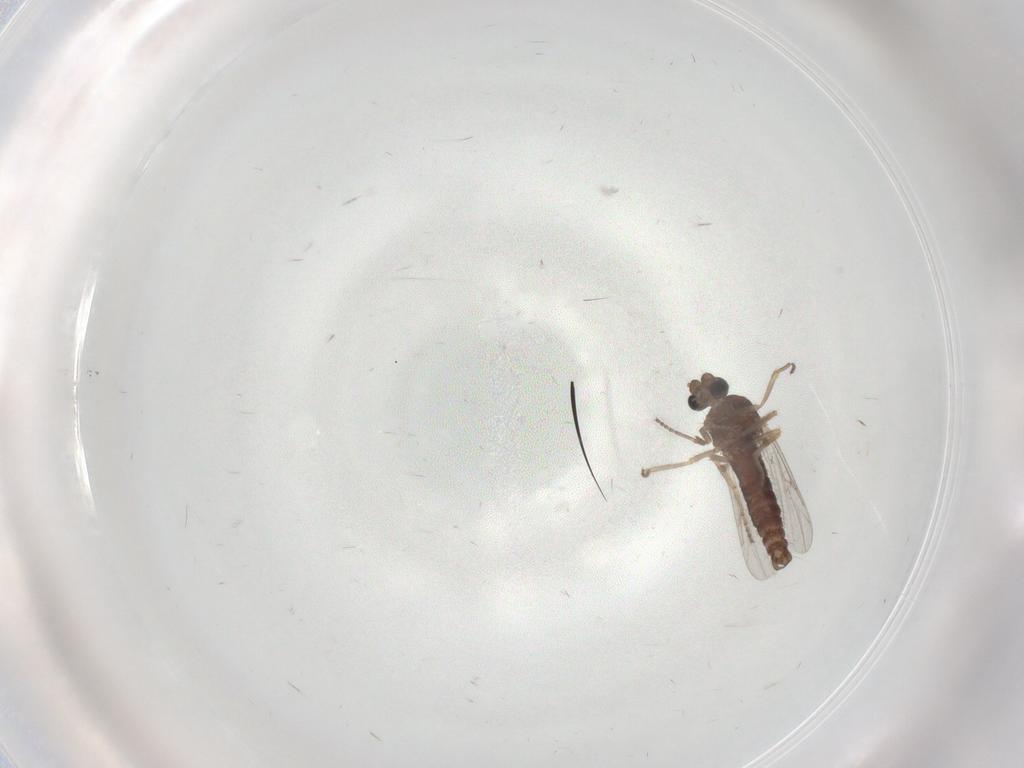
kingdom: Animalia
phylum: Arthropoda
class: Insecta
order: Diptera
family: Ceratopogonidae
